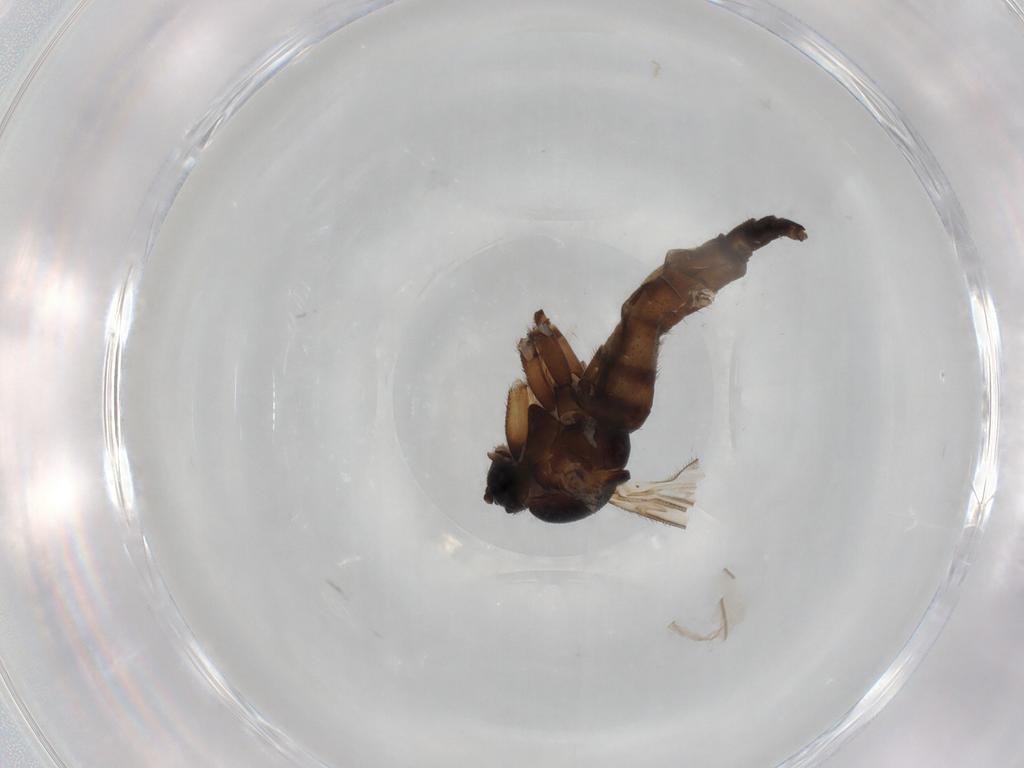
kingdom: Animalia
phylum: Arthropoda
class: Insecta
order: Diptera
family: Sciaridae
